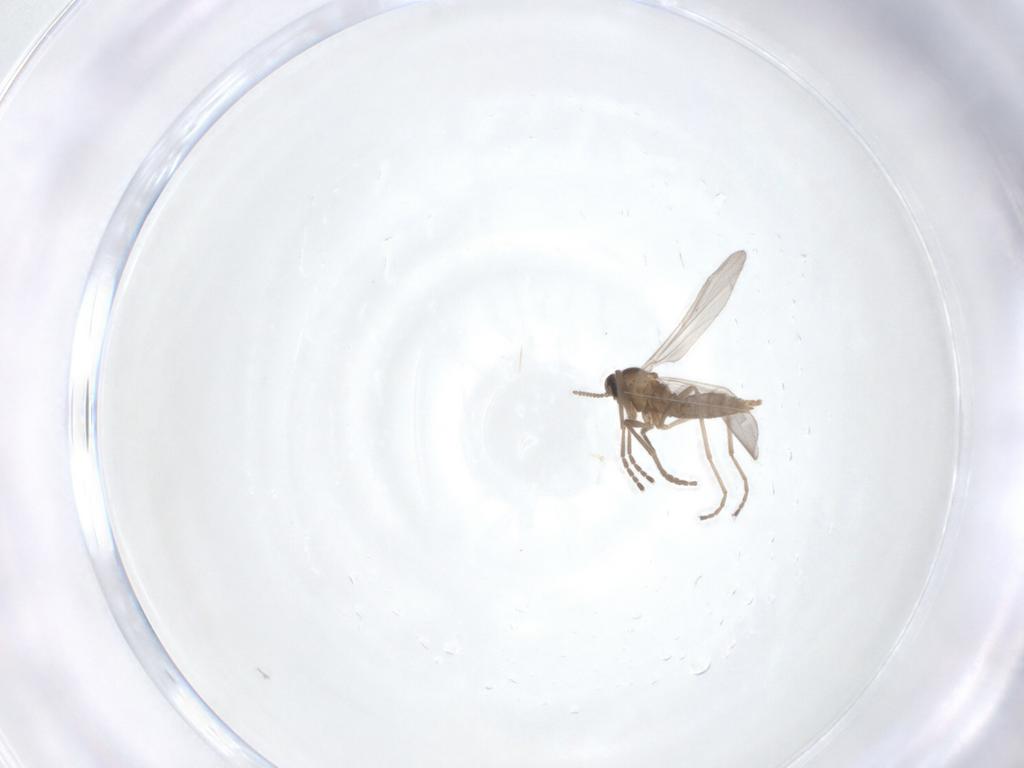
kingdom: Animalia
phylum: Arthropoda
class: Insecta
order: Diptera
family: Cecidomyiidae
